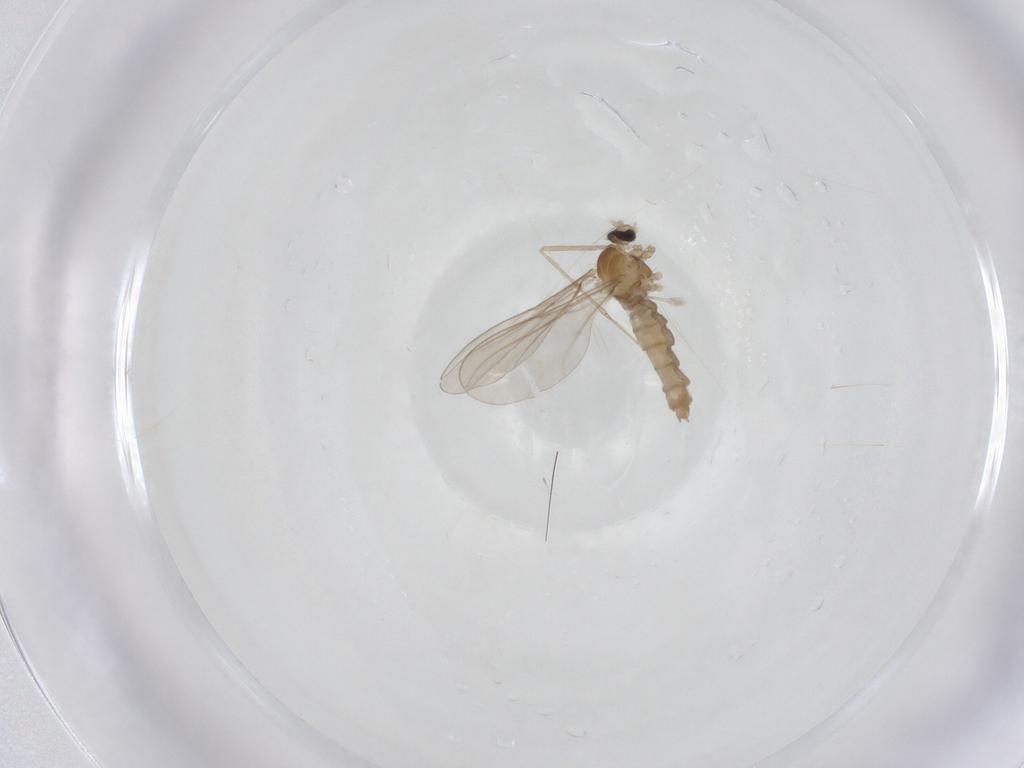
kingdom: Animalia
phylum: Arthropoda
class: Insecta
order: Diptera
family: Cecidomyiidae
